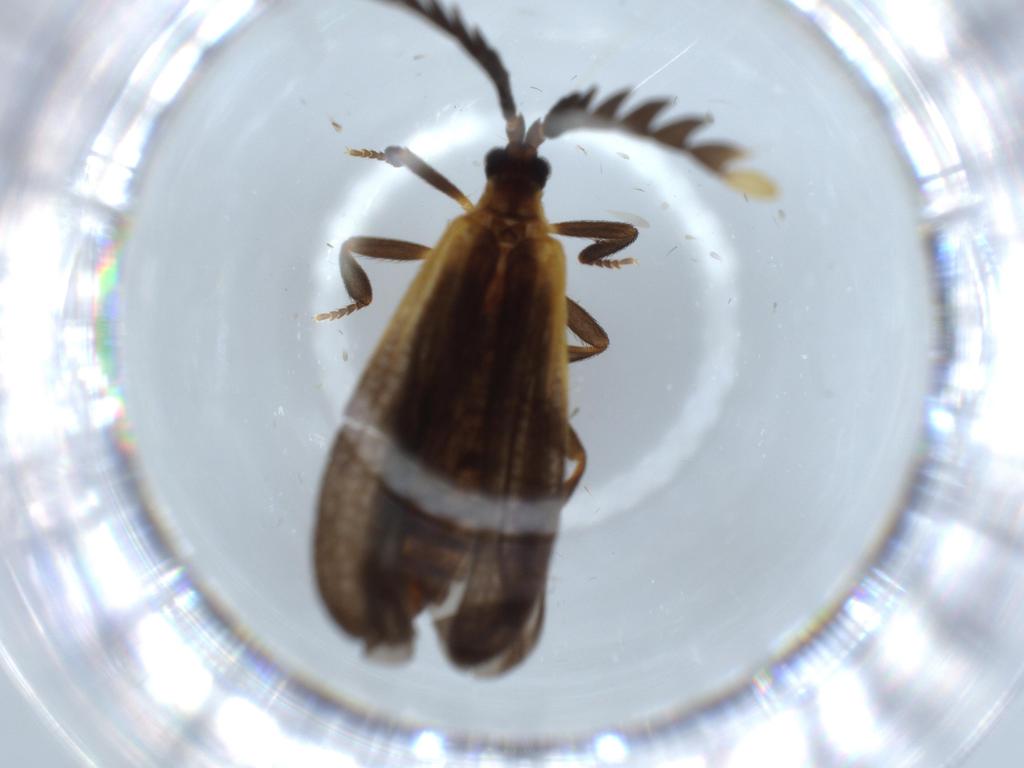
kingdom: Animalia
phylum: Arthropoda
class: Insecta
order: Coleoptera
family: Lycidae
